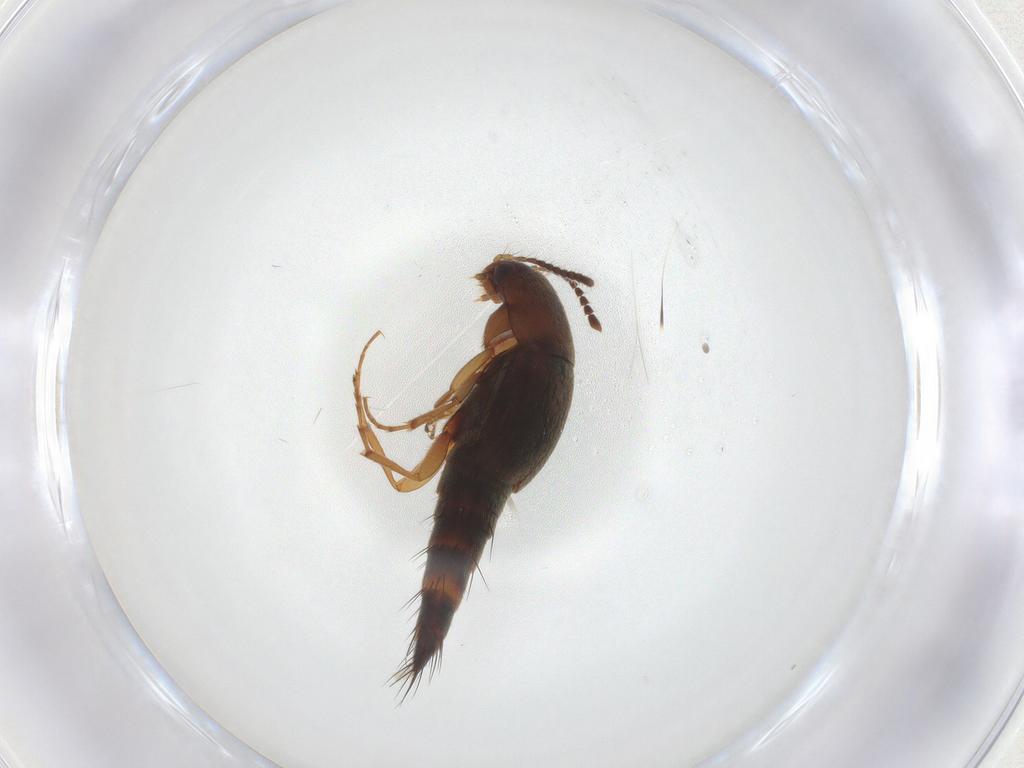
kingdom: Animalia
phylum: Arthropoda
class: Insecta
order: Coleoptera
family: Staphylinidae
